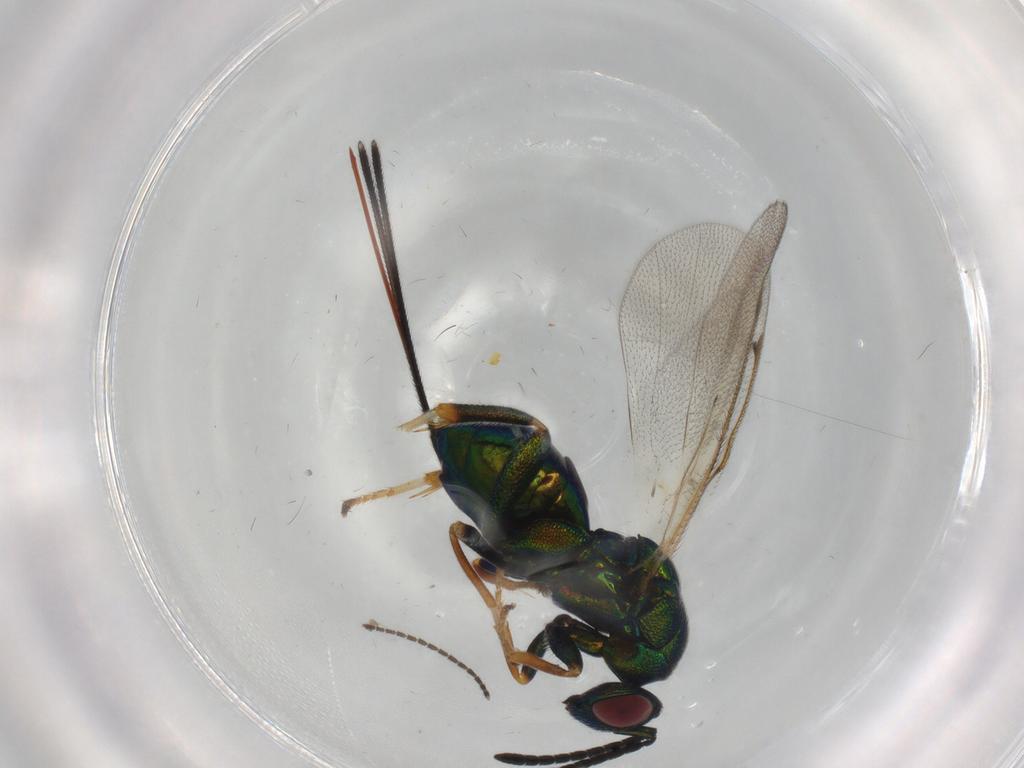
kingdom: Animalia
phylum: Arthropoda
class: Insecta
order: Hymenoptera
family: Torymidae
